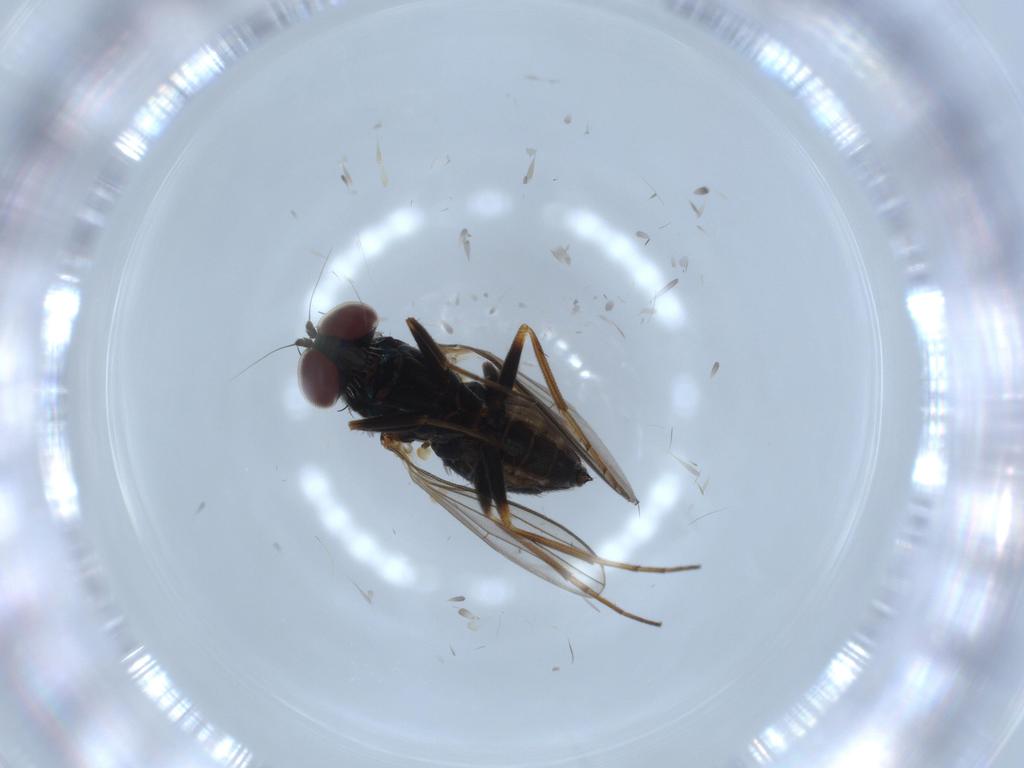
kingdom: Animalia
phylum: Arthropoda
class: Insecta
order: Diptera
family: Dolichopodidae
